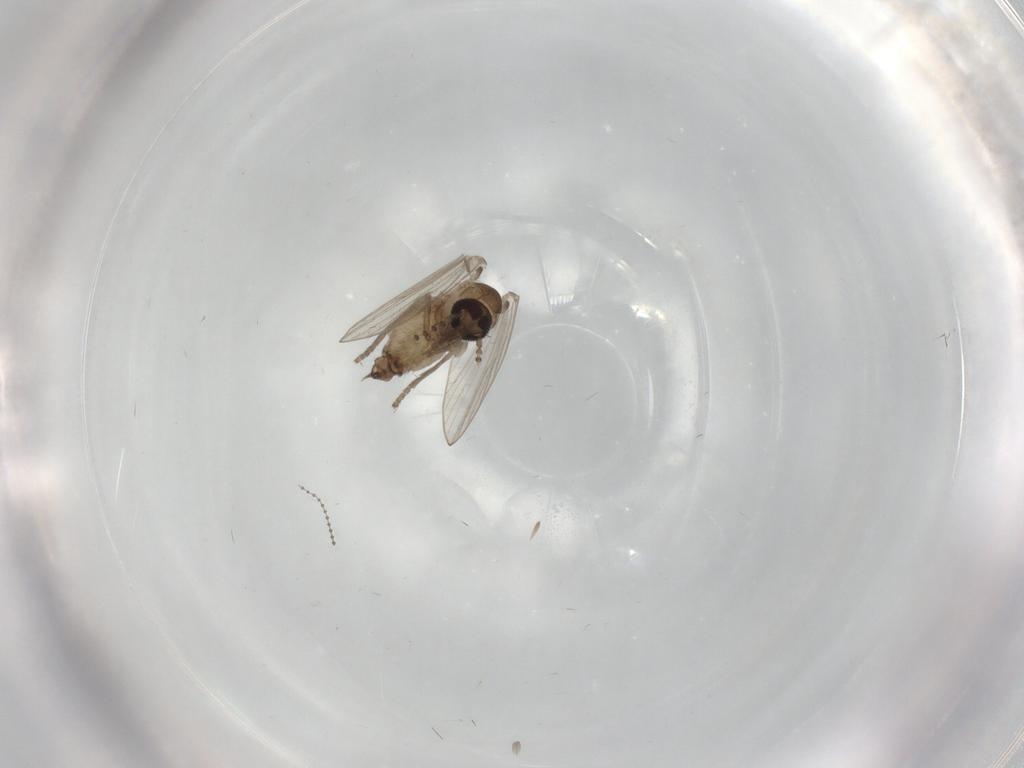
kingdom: Animalia
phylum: Arthropoda
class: Insecta
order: Diptera
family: Psychodidae
